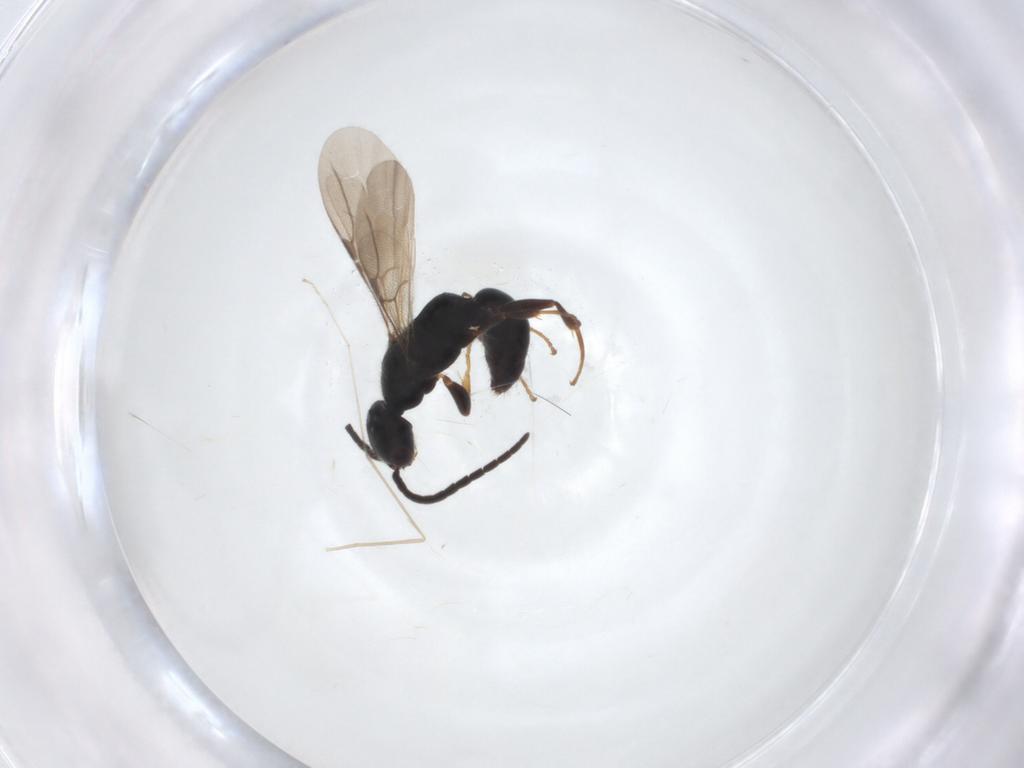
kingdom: Animalia
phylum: Arthropoda
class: Insecta
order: Hymenoptera
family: Bethylidae
